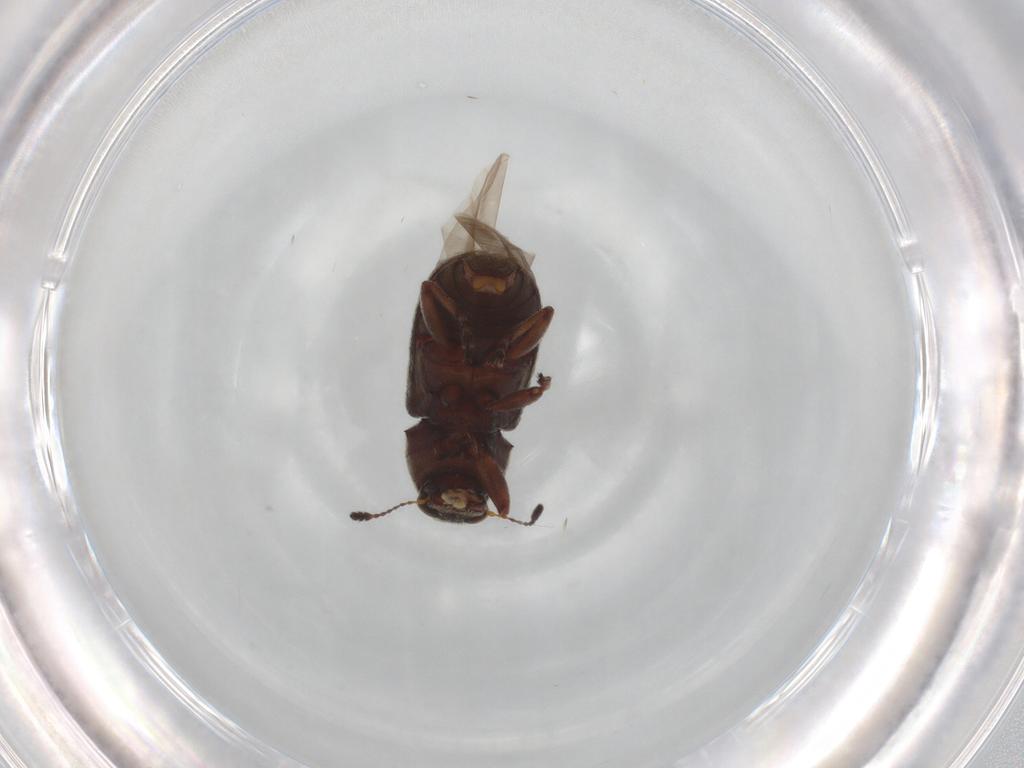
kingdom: Animalia
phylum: Arthropoda
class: Insecta
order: Coleoptera
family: Anthribidae
